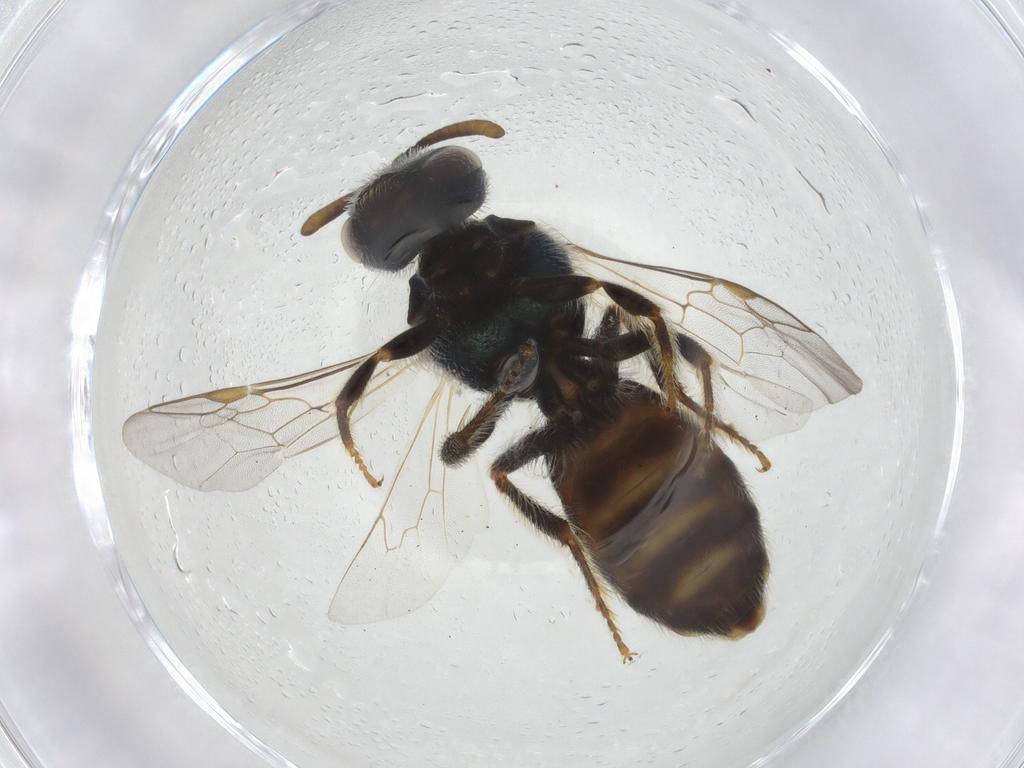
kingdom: Animalia
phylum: Arthropoda
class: Insecta
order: Hymenoptera
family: Halictidae
